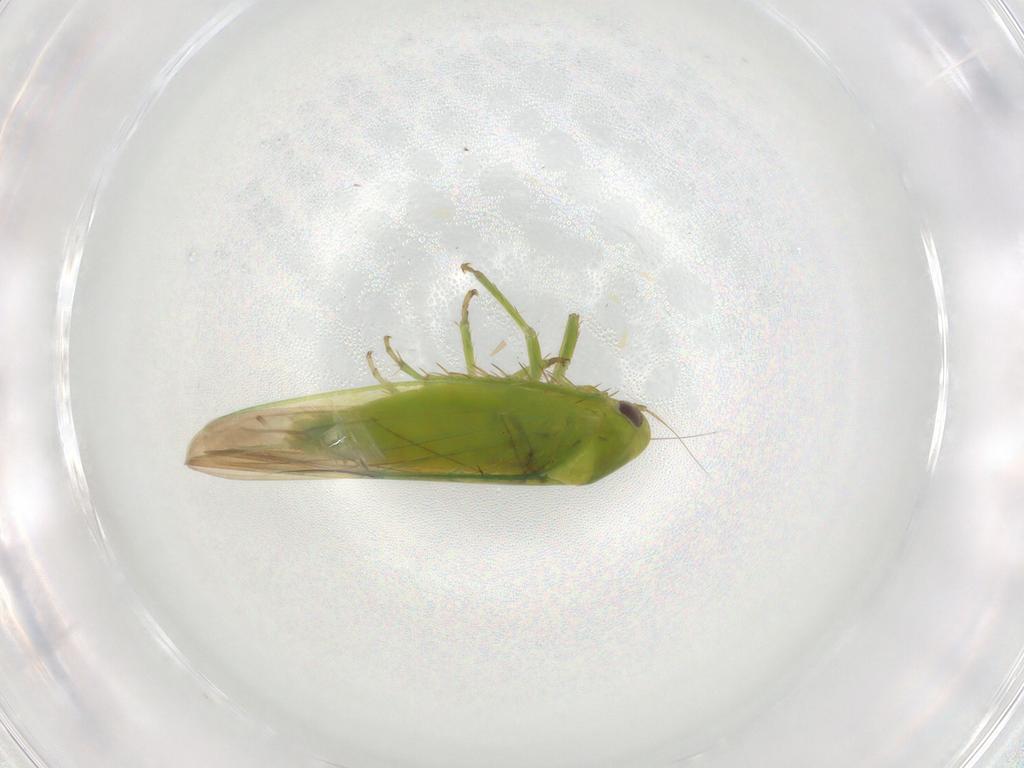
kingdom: Animalia
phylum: Arthropoda
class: Insecta
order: Hemiptera
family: Cicadellidae
